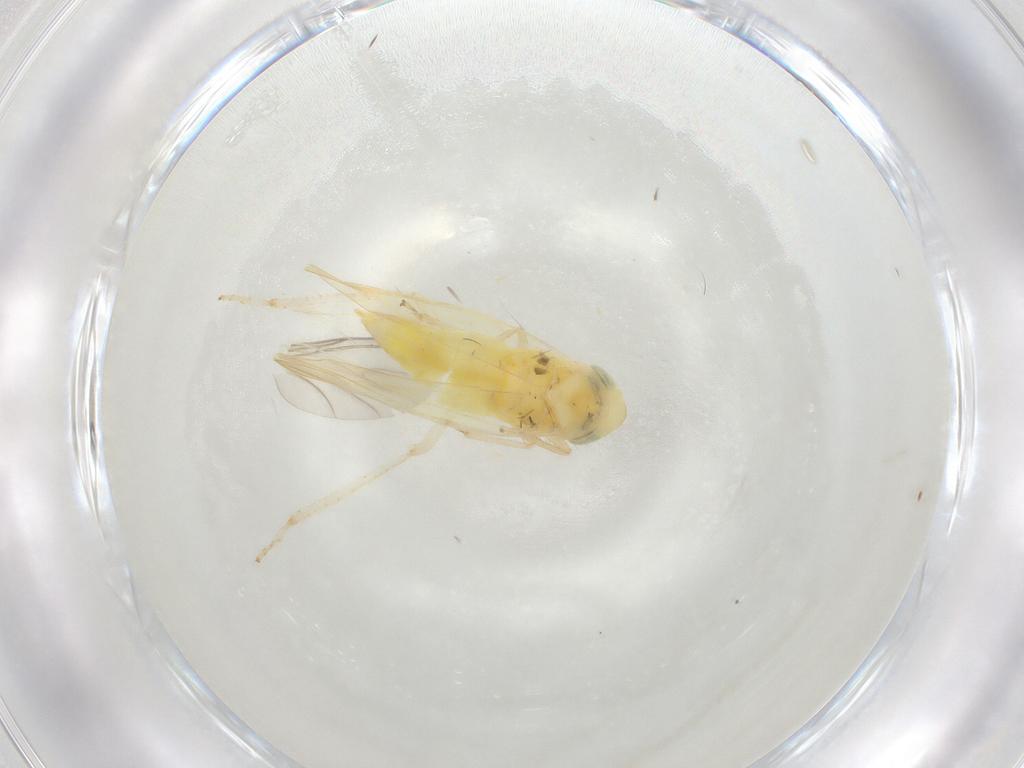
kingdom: Animalia
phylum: Arthropoda
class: Insecta
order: Hemiptera
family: Cicadellidae
